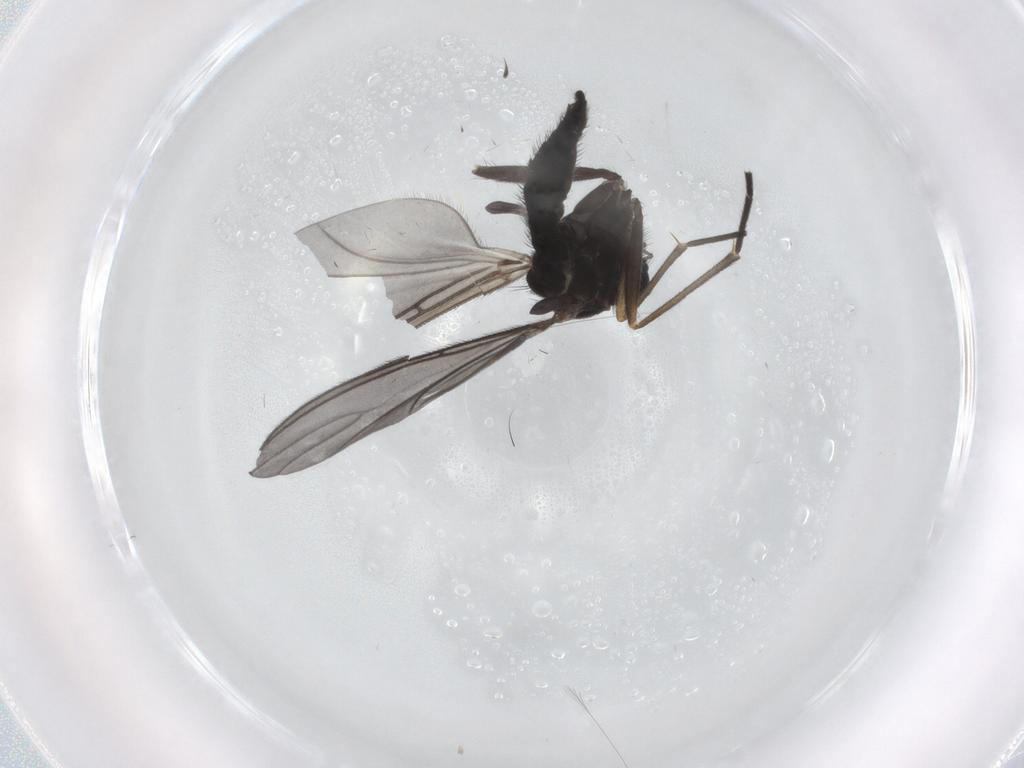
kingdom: Animalia
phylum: Arthropoda
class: Insecta
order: Diptera
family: Sciaridae
